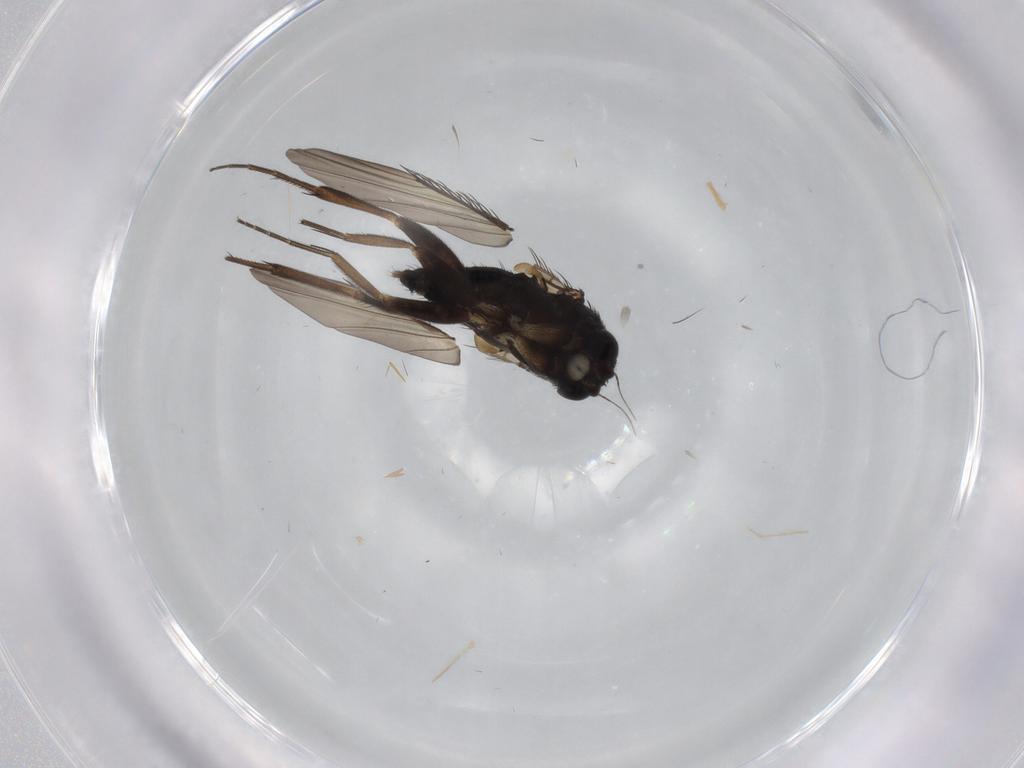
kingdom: Animalia
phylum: Arthropoda
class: Insecta
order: Diptera
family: Phoridae
